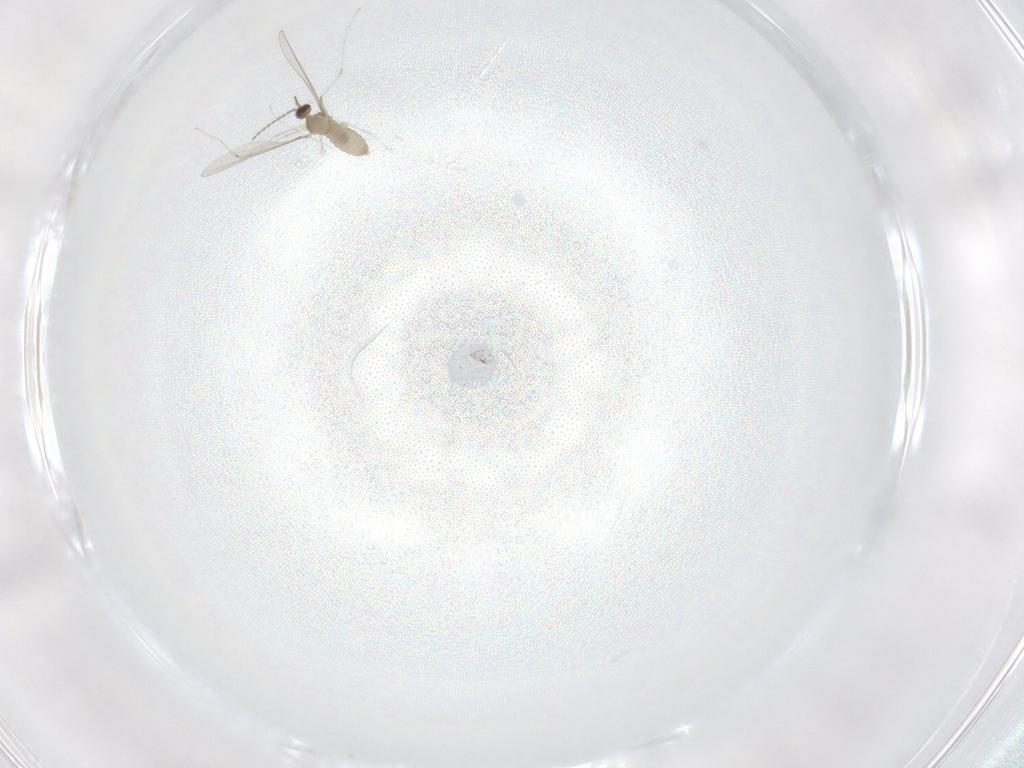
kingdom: Animalia
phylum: Arthropoda
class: Insecta
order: Diptera
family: Cecidomyiidae
